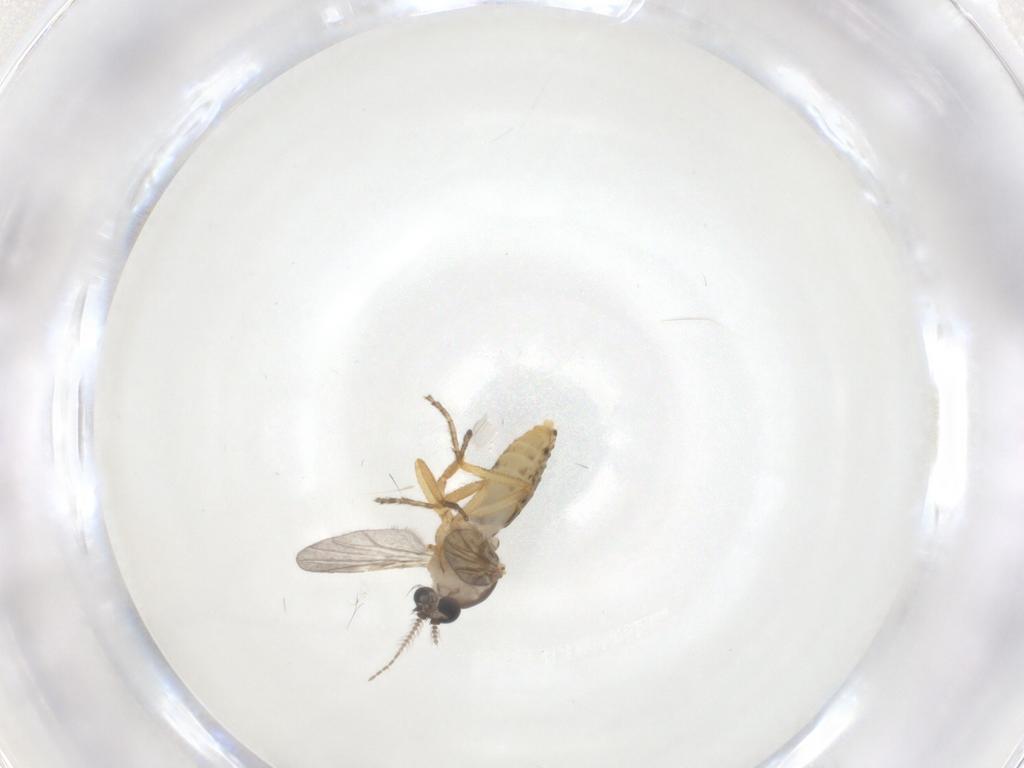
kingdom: Animalia
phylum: Arthropoda
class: Insecta
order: Diptera
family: Ceratopogonidae
